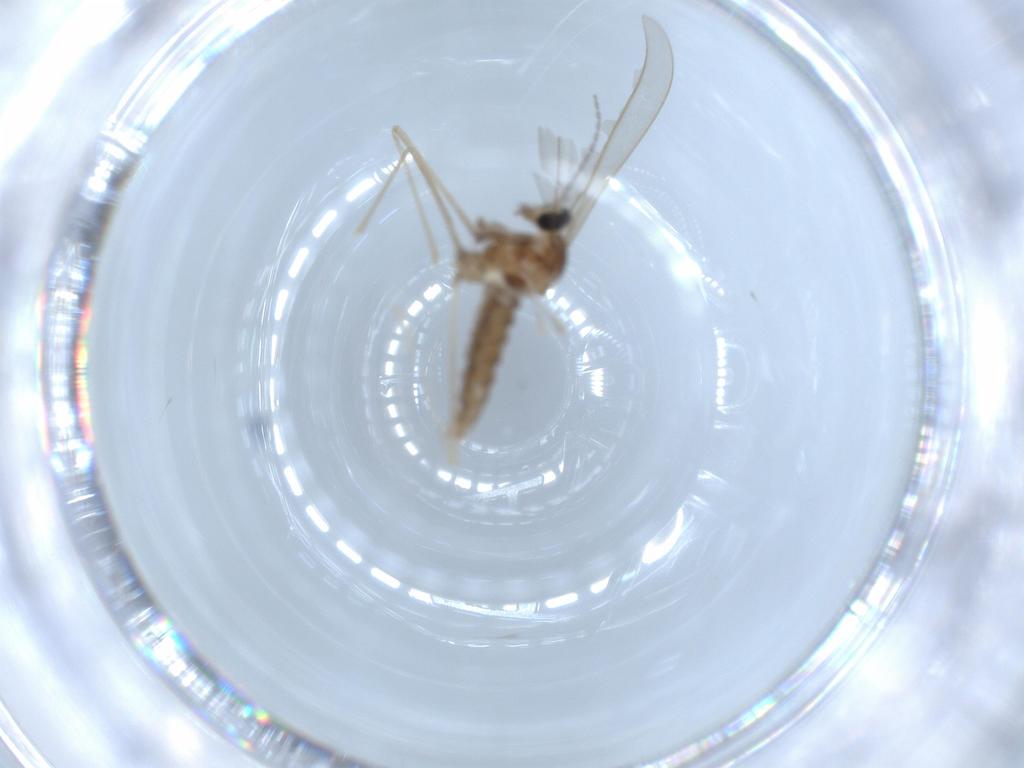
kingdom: Animalia
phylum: Arthropoda
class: Insecta
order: Diptera
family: Cecidomyiidae
